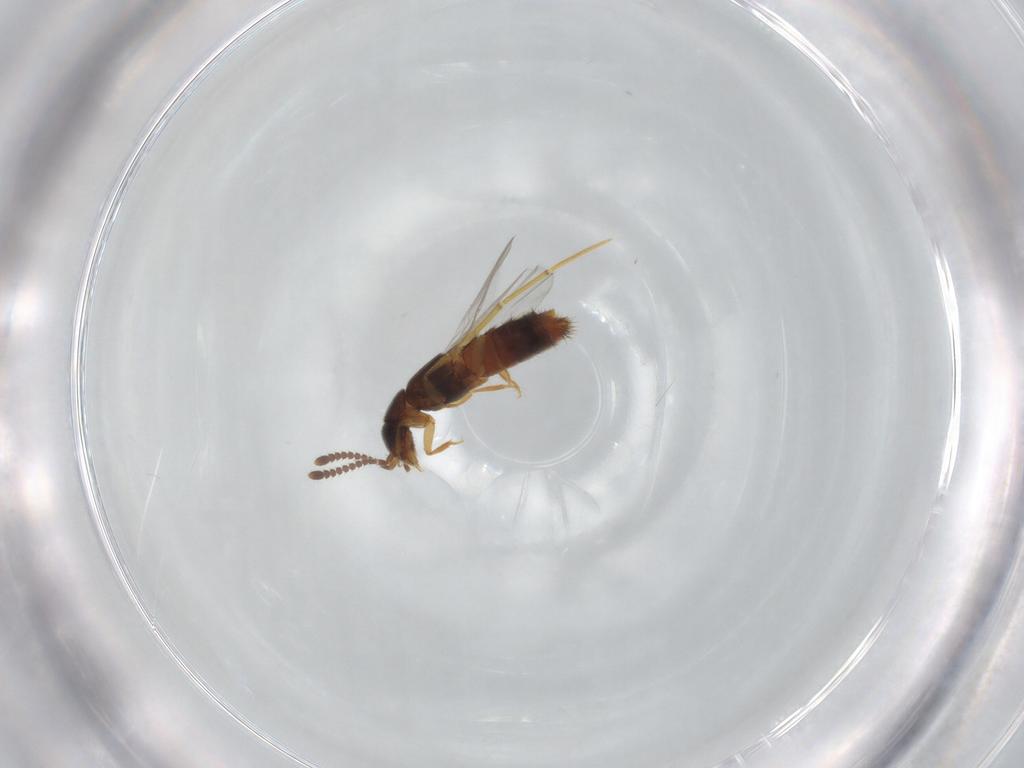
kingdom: Animalia
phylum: Arthropoda
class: Insecta
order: Coleoptera
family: Staphylinidae
